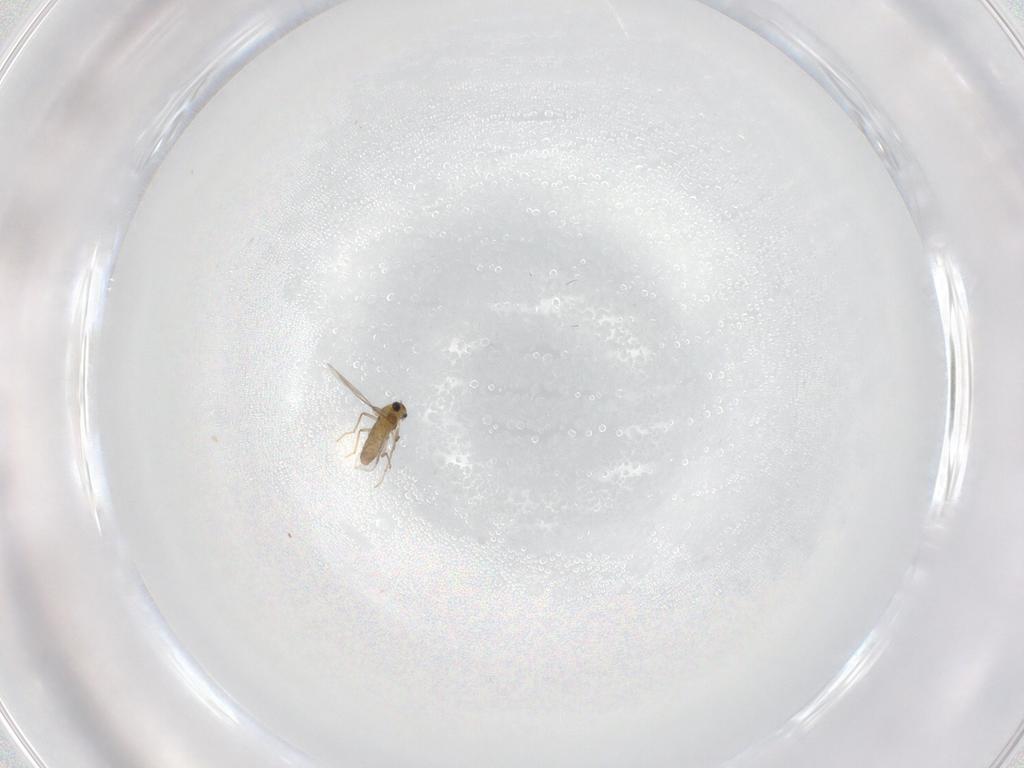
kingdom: Animalia
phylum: Arthropoda
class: Insecta
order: Diptera
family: Chironomidae
